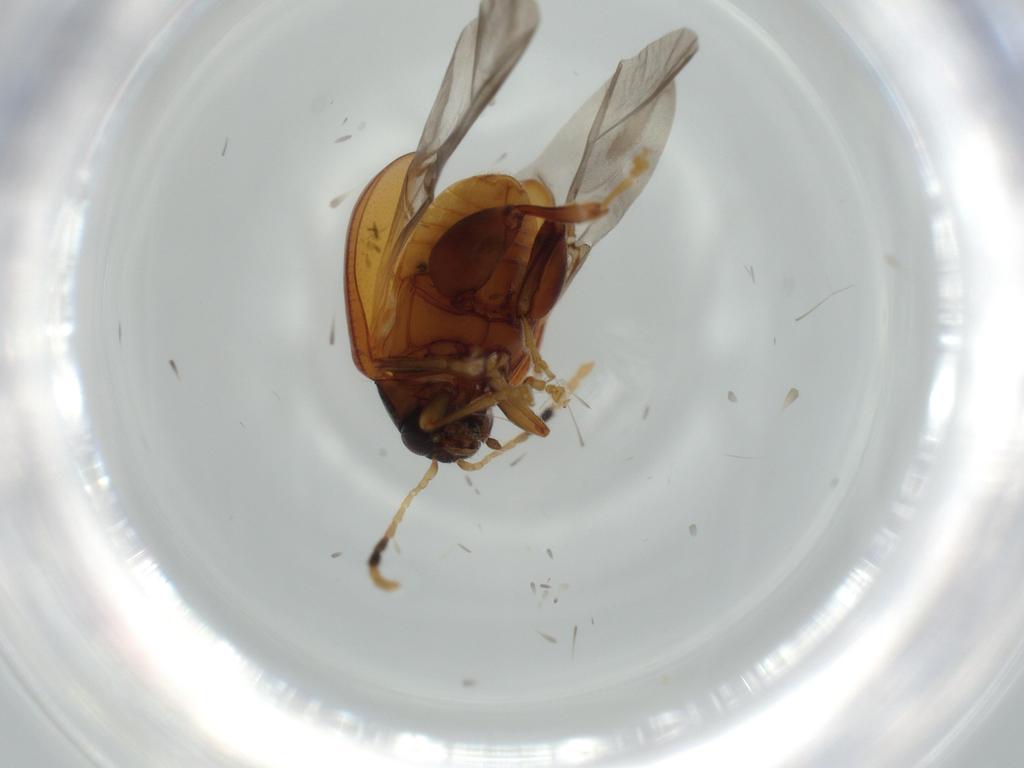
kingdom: Animalia
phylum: Arthropoda
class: Insecta
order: Coleoptera
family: Chrysomelidae
